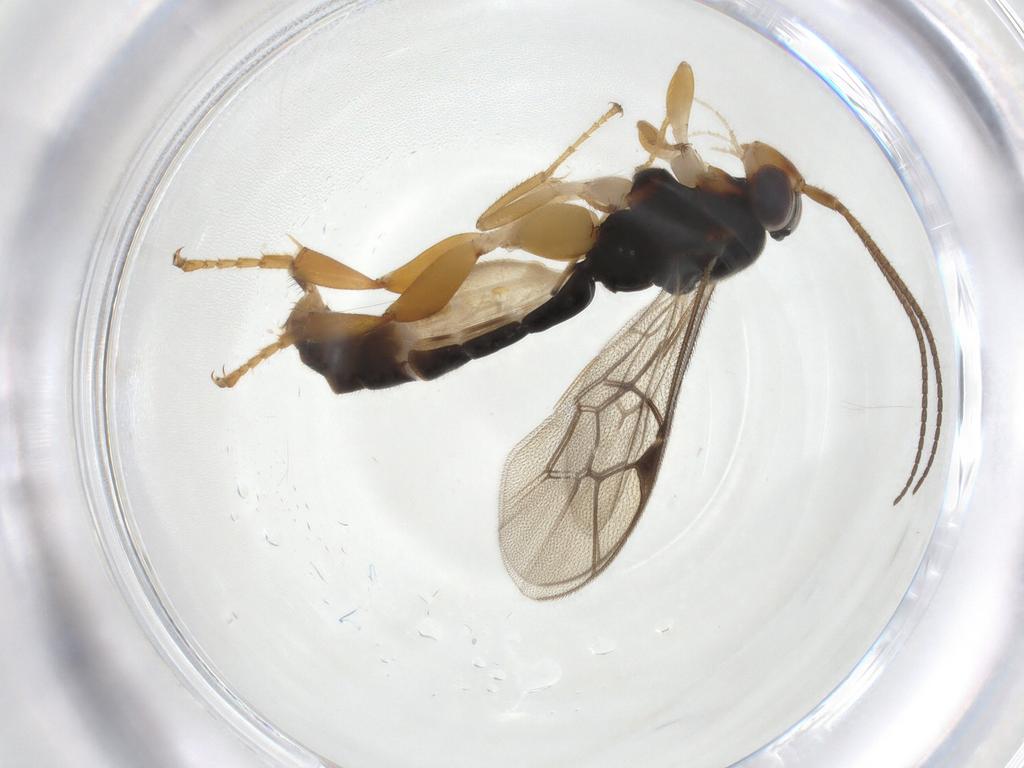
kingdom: Animalia
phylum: Arthropoda
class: Insecta
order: Hymenoptera
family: Ichneumonidae
